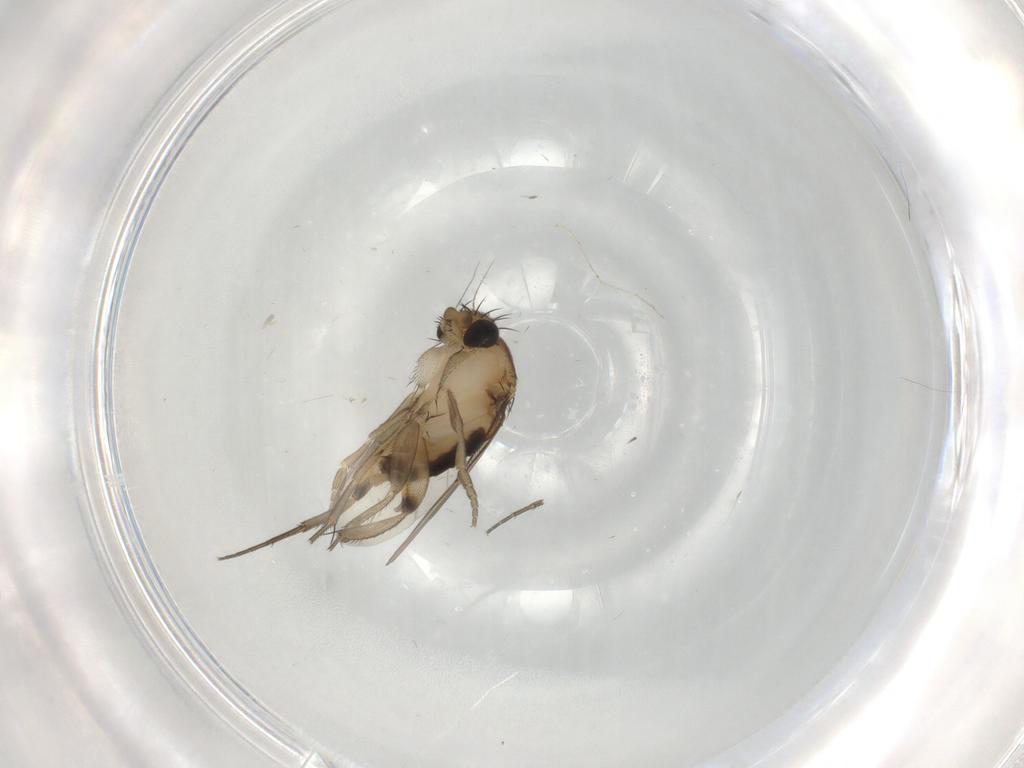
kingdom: Animalia
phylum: Arthropoda
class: Insecta
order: Diptera
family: Phoridae
